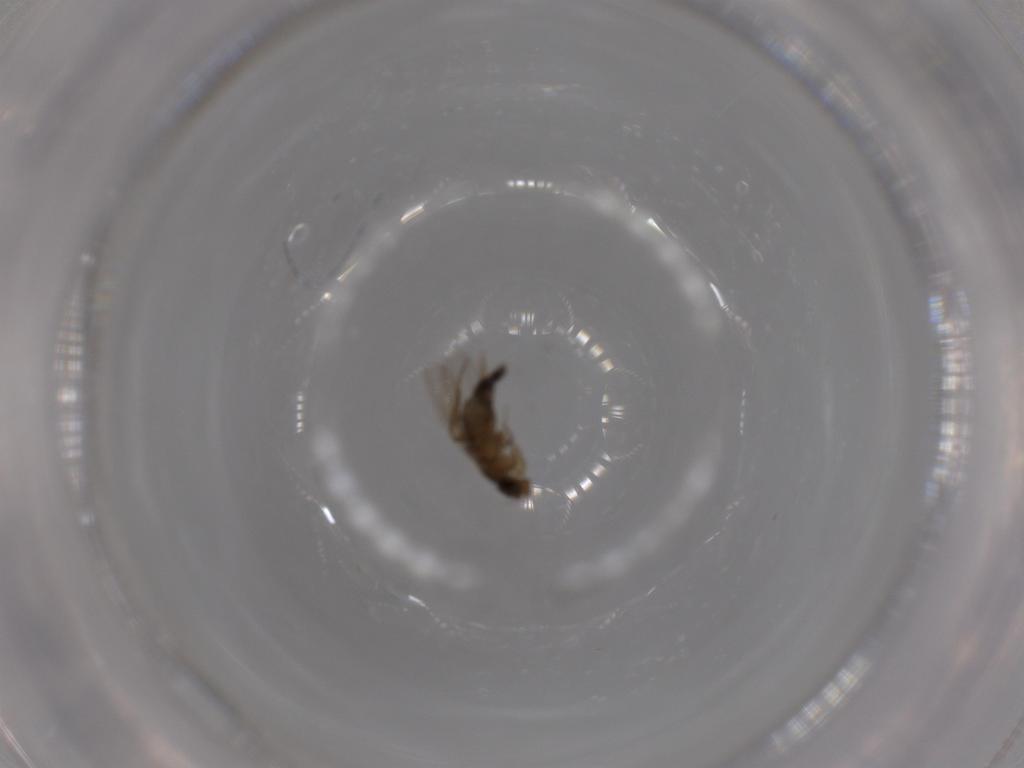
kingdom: Animalia
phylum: Arthropoda
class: Insecta
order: Diptera
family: Phoridae
